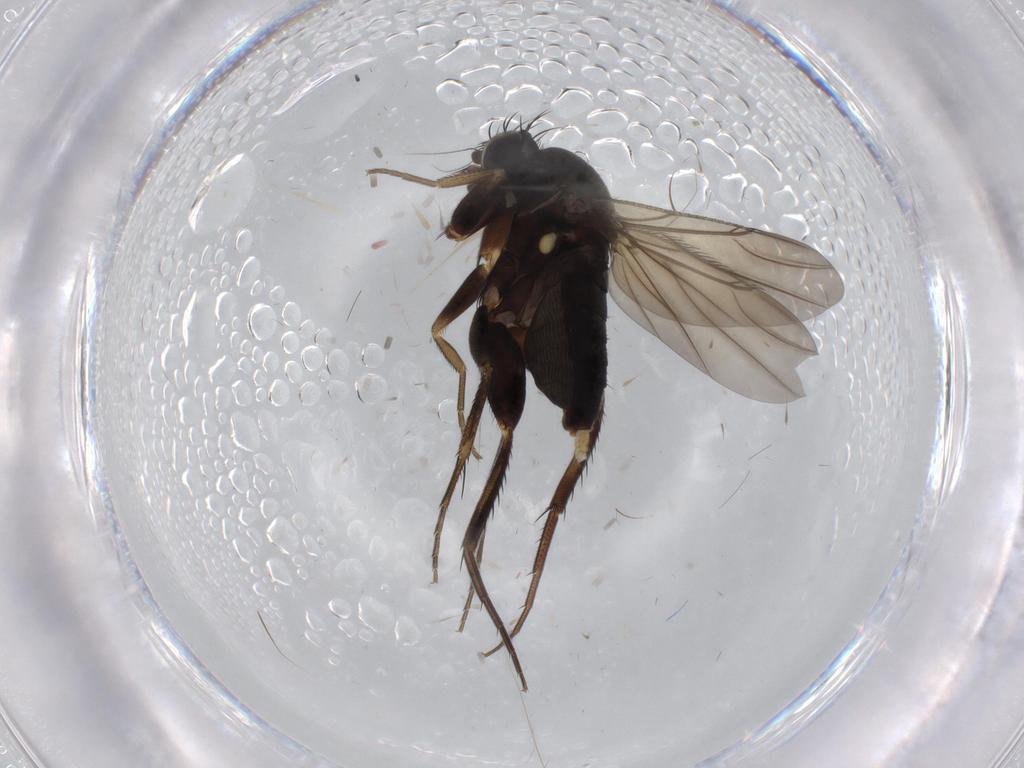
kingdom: Animalia
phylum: Arthropoda
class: Insecta
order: Diptera
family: Phoridae
